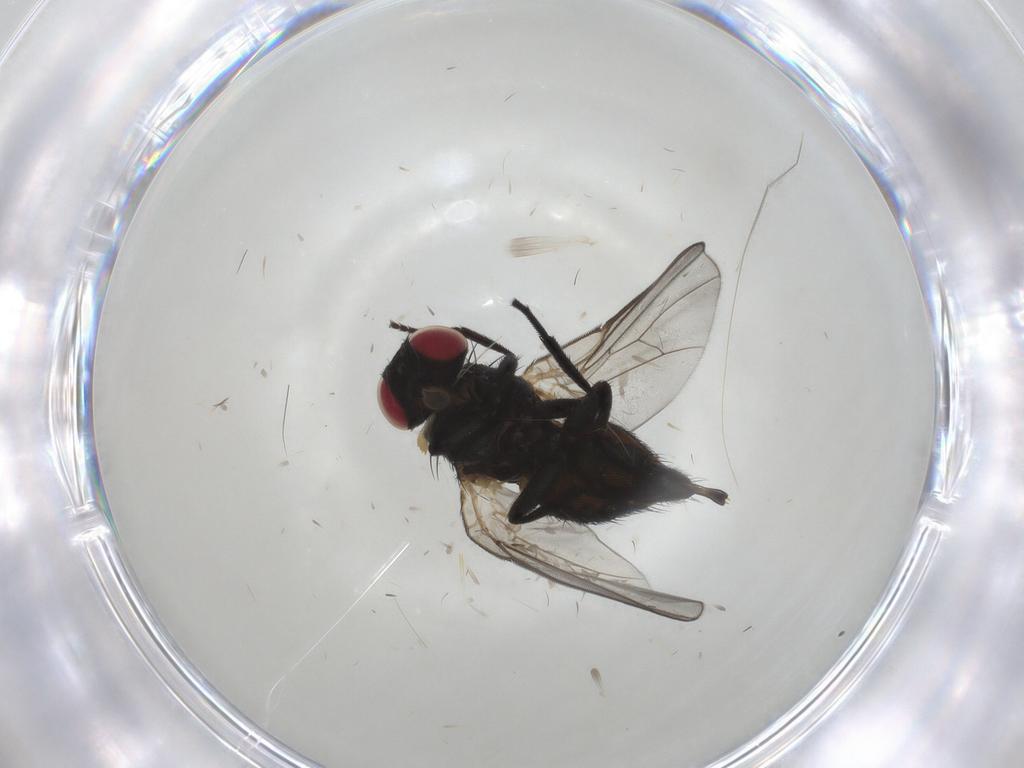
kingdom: Animalia
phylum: Arthropoda
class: Insecta
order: Diptera
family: Agromyzidae
